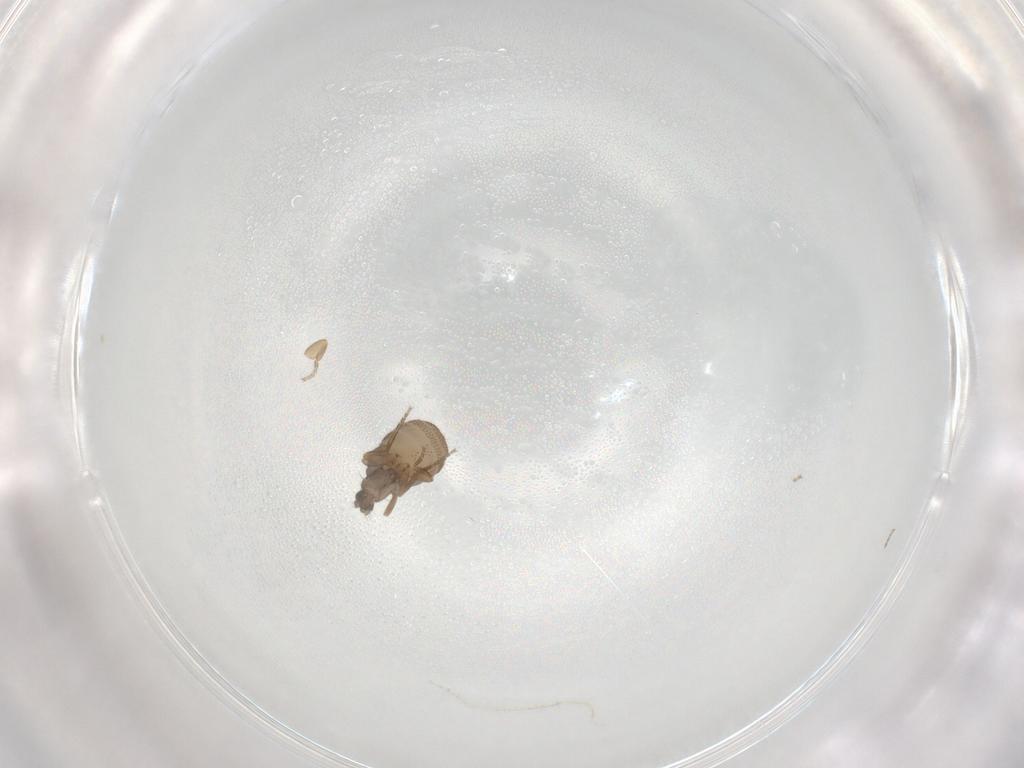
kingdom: Animalia
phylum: Arthropoda
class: Insecta
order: Diptera
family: Phoridae
